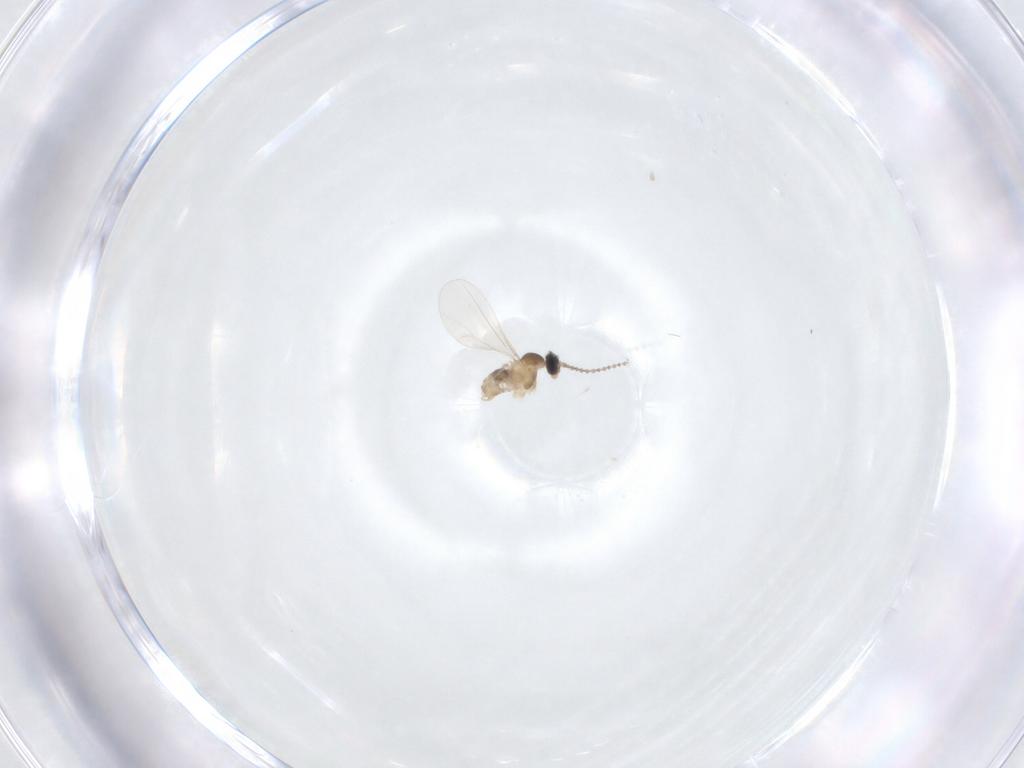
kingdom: Animalia
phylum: Arthropoda
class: Insecta
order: Diptera
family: Cecidomyiidae
